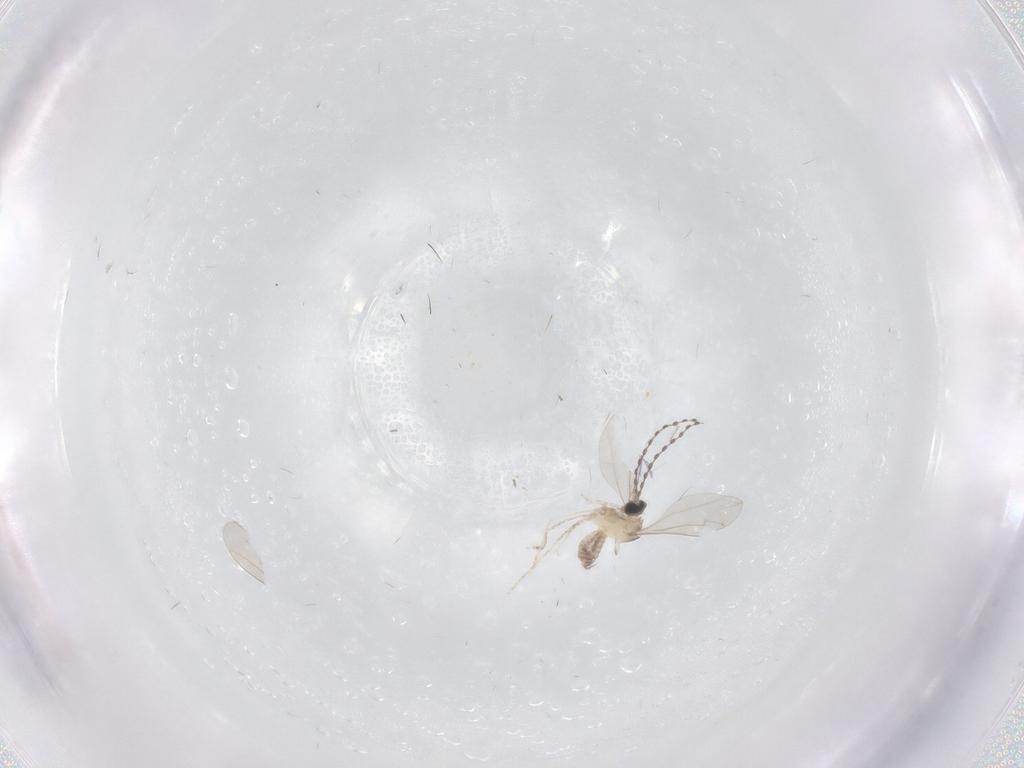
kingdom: Animalia
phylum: Arthropoda
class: Insecta
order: Diptera
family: Cecidomyiidae
